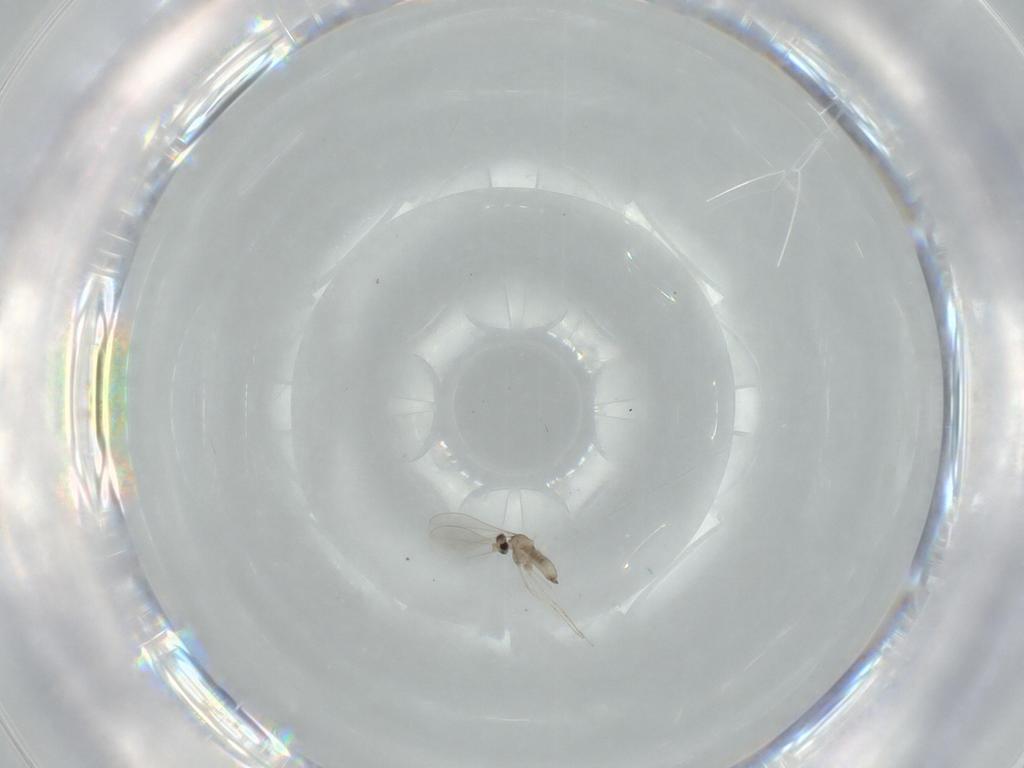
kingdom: Animalia
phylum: Arthropoda
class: Insecta
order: Diptera
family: Cecidomyiidae
